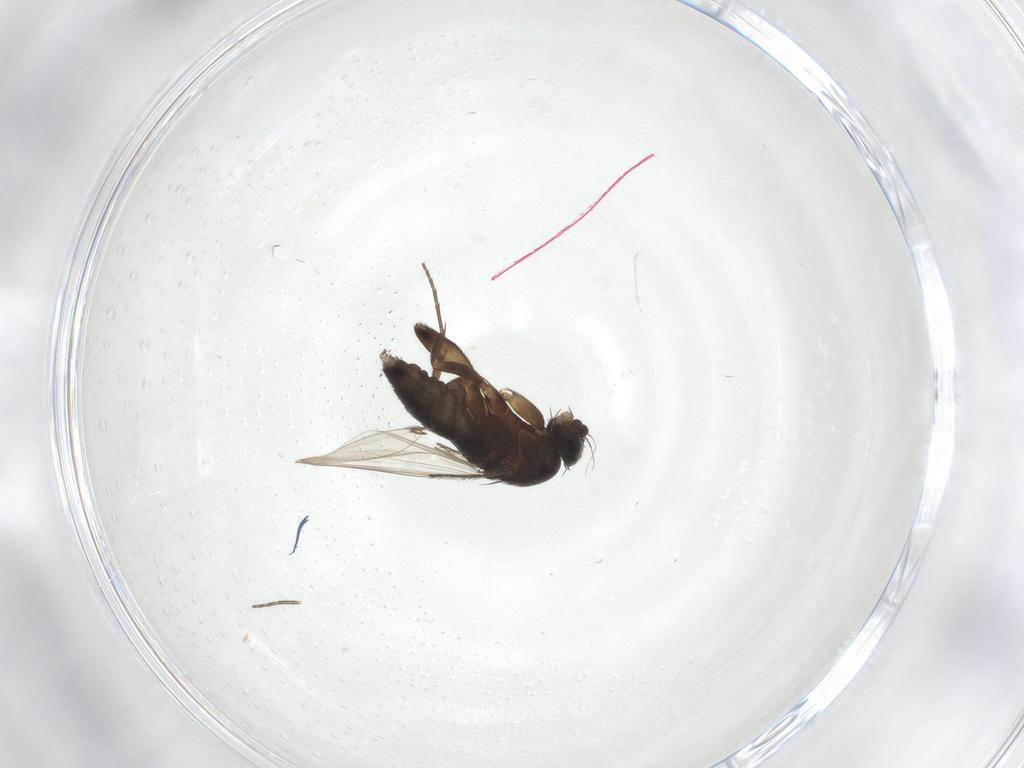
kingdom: Animalia
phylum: Arthropoda
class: Insecta
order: Diptera
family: Phoridae
